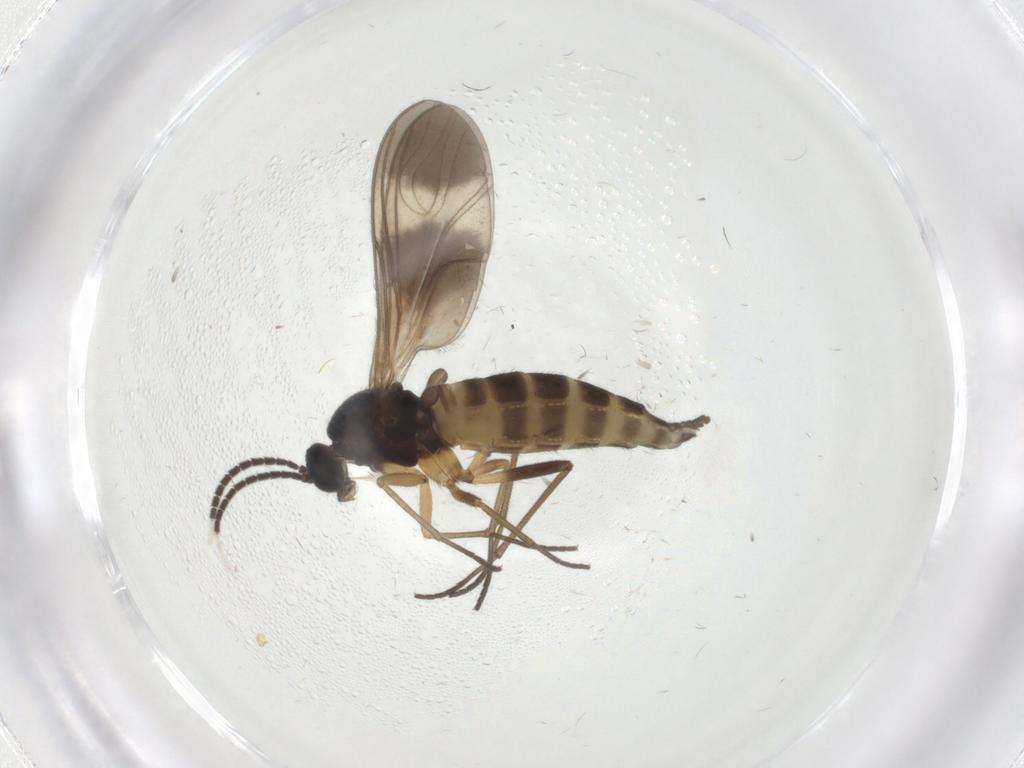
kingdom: Animalia
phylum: Arthropoda
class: Insecta
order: Diptera
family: Sciaridae
